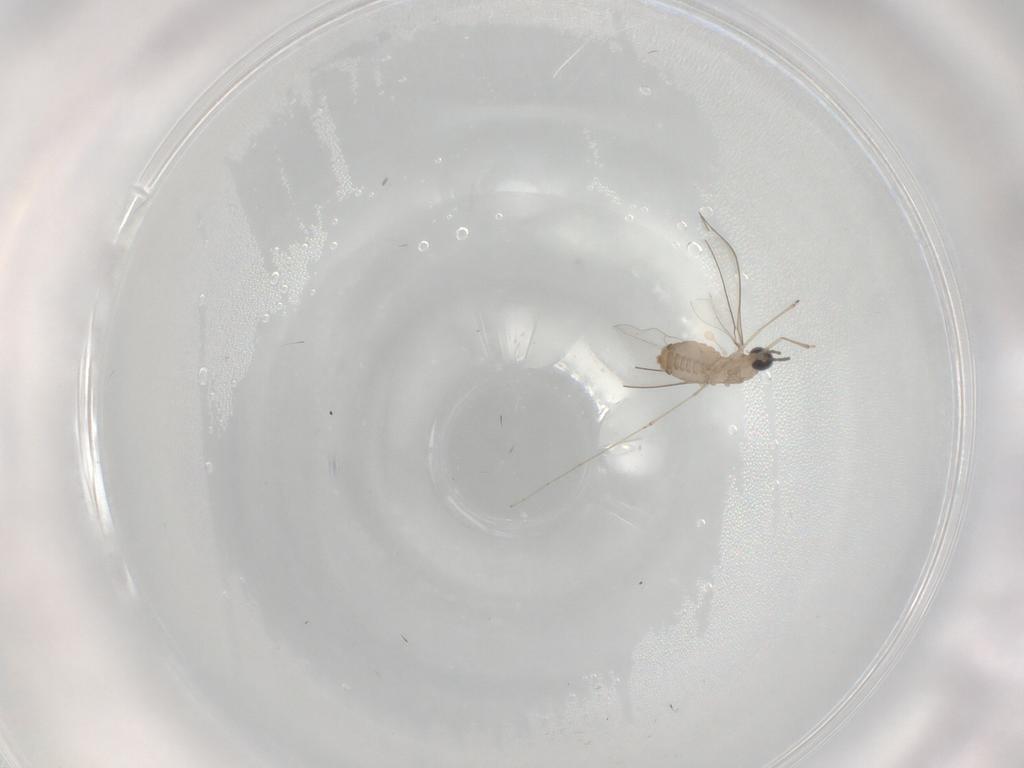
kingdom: Animalia
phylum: Arthropoda
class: Insecta
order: Diptera
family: Cecidomyiidae
